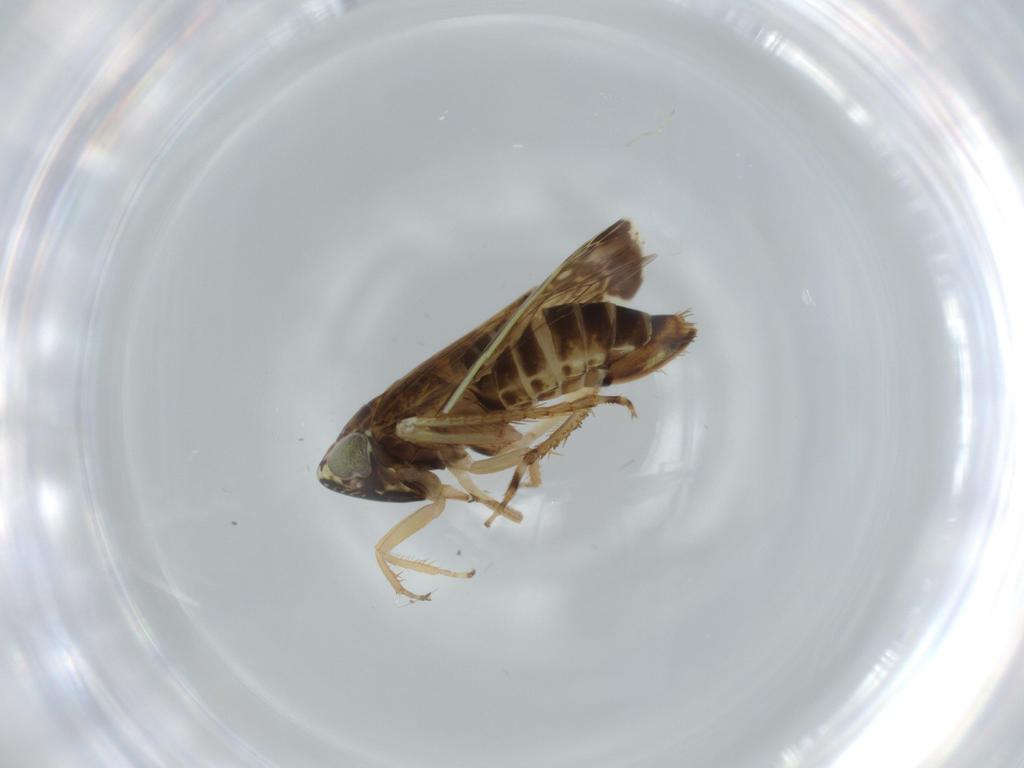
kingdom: Animalia
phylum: Arthropoda
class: Insecta
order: Hemiptera
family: Cicadellidae
